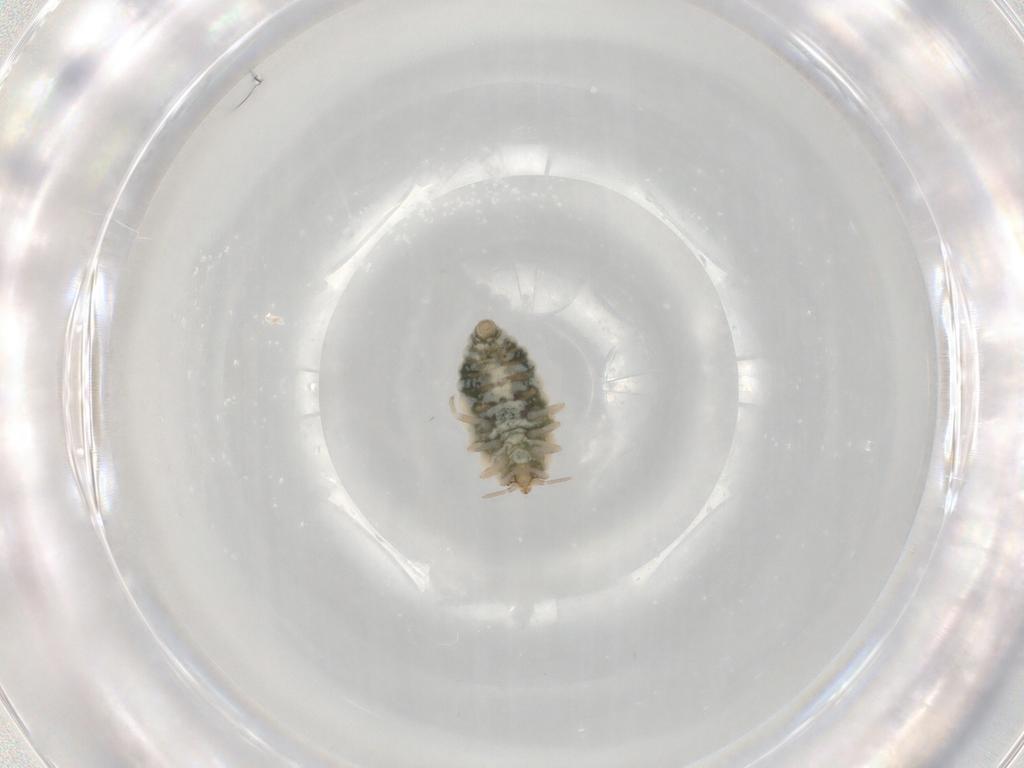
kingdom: Animalia
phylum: Arthropoda
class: Insecta
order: Neuroptera
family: Coniopterygidae
